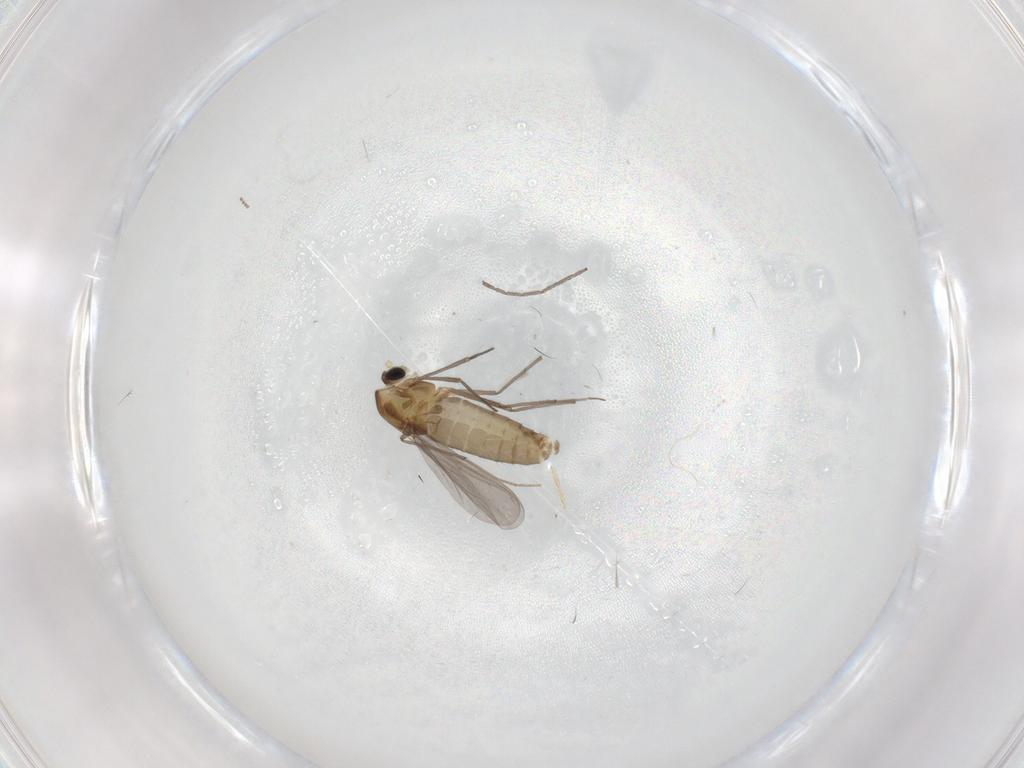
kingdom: Animalia
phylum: Arthropoda
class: Insecta
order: Diptera
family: Cecidomyiidae
